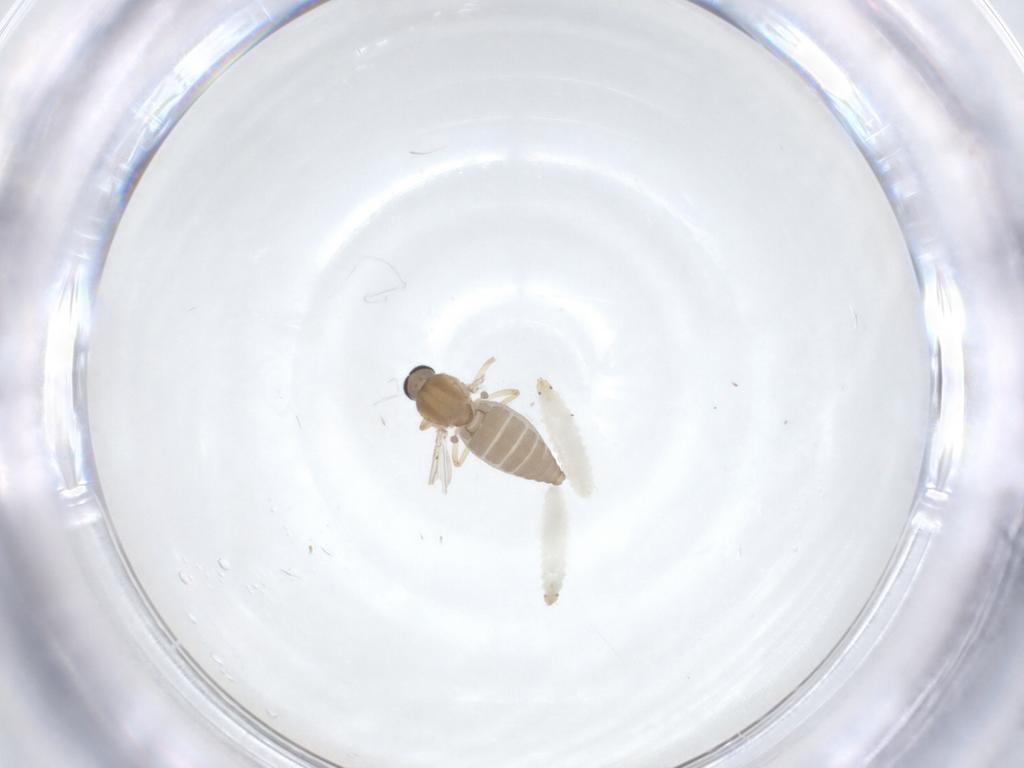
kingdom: Animalia
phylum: Arthropoda
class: Insecta
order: Diptera
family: Ceratopogonidae
